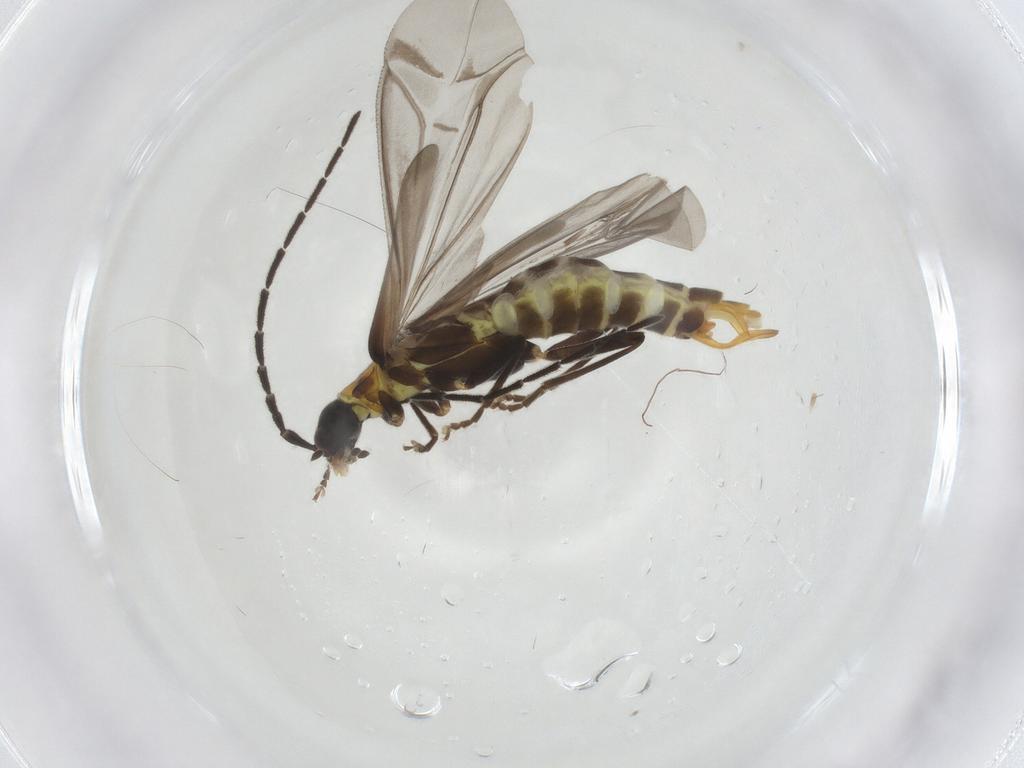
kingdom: Animalia
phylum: Arthropoda
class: Insecta
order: Coleoptera
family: Cantharidae
